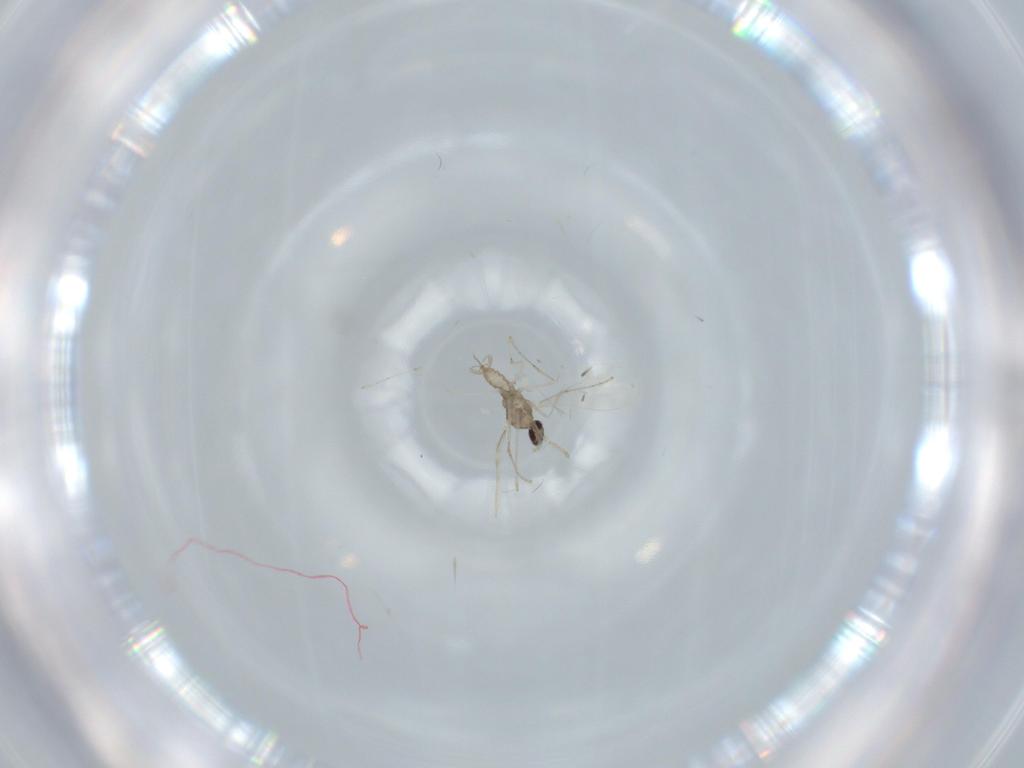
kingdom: Animalia
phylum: Arthropoda
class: Insecta
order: Diptera
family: Cecidomyiidae
